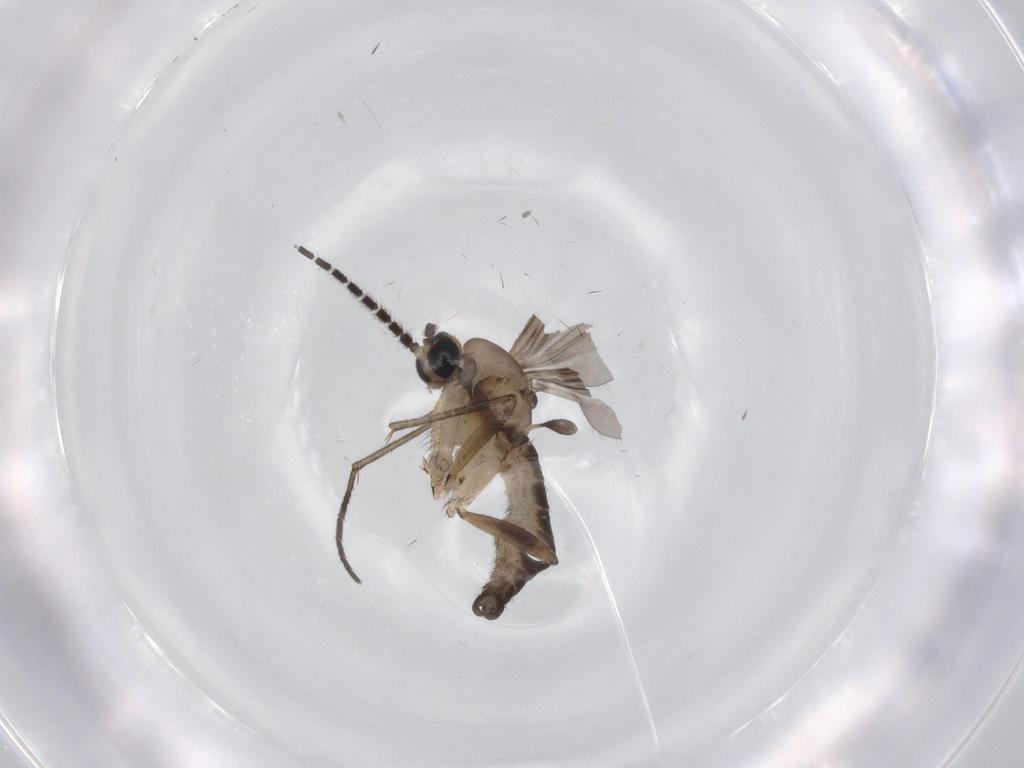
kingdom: Animalia
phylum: Arthropoda
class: Insecta
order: Diptera
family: Sciaridae
